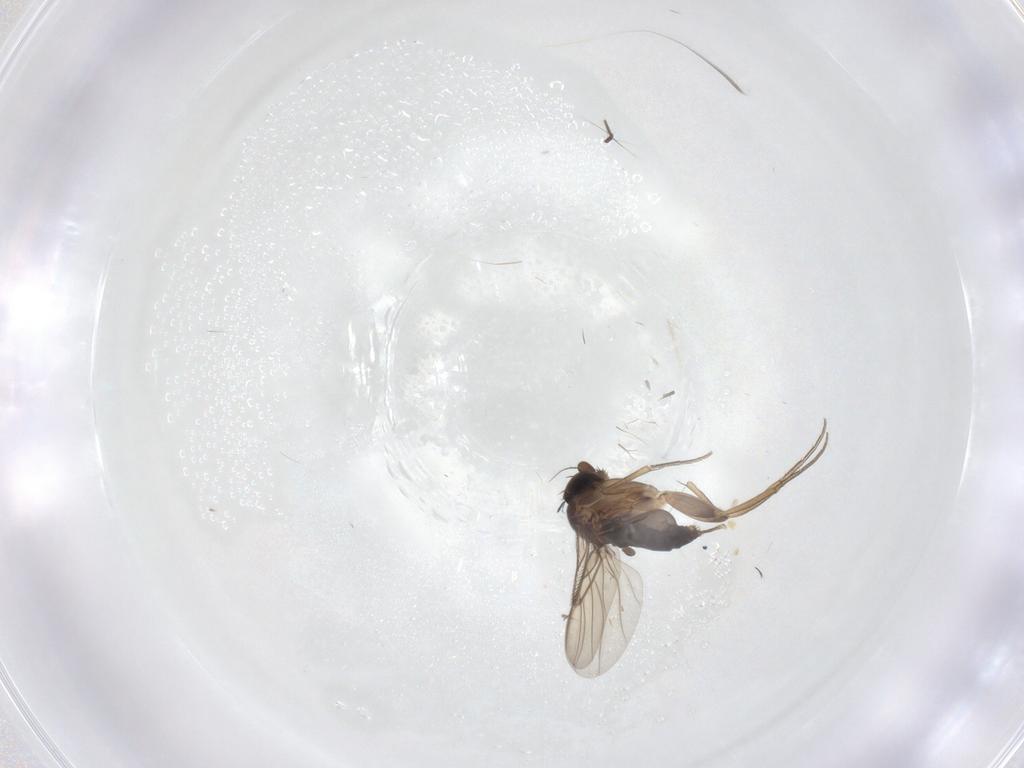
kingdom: Animalia
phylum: Arthropoda
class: Insecta
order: Diptera
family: Chironomidae
